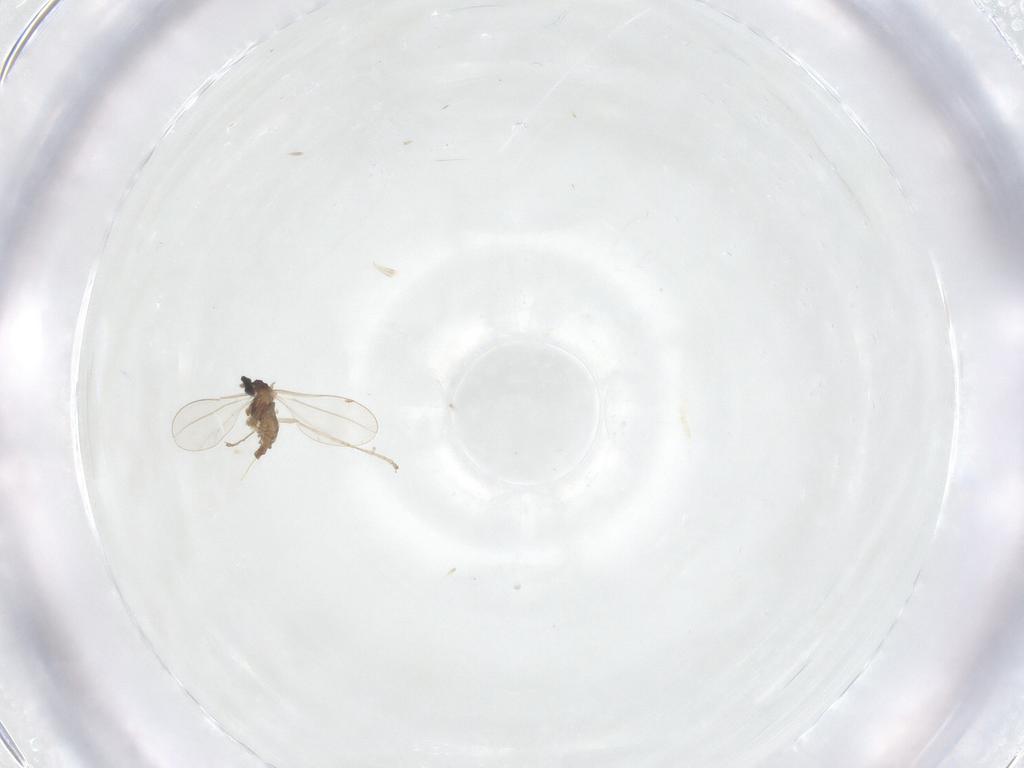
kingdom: Animalia
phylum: Arthropoda
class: Insecta
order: Diptera
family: Cecidomyiidae
